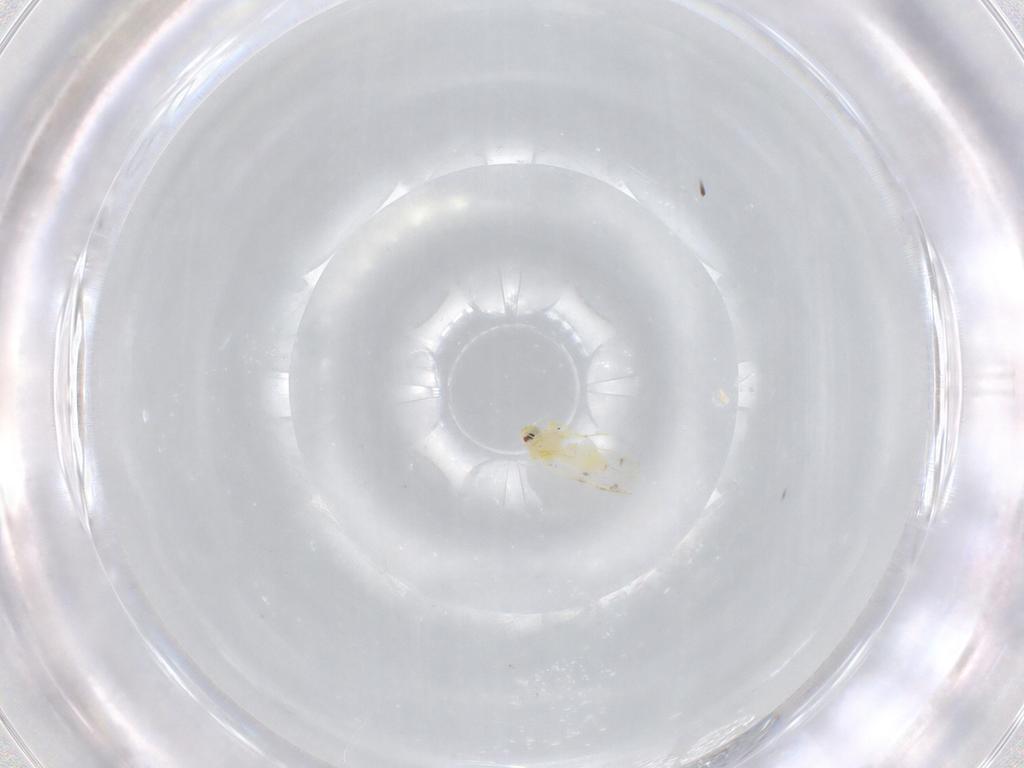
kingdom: Animalia
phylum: Arthropoda
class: Insecta
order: Hemiptera
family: Aleyrodidae
